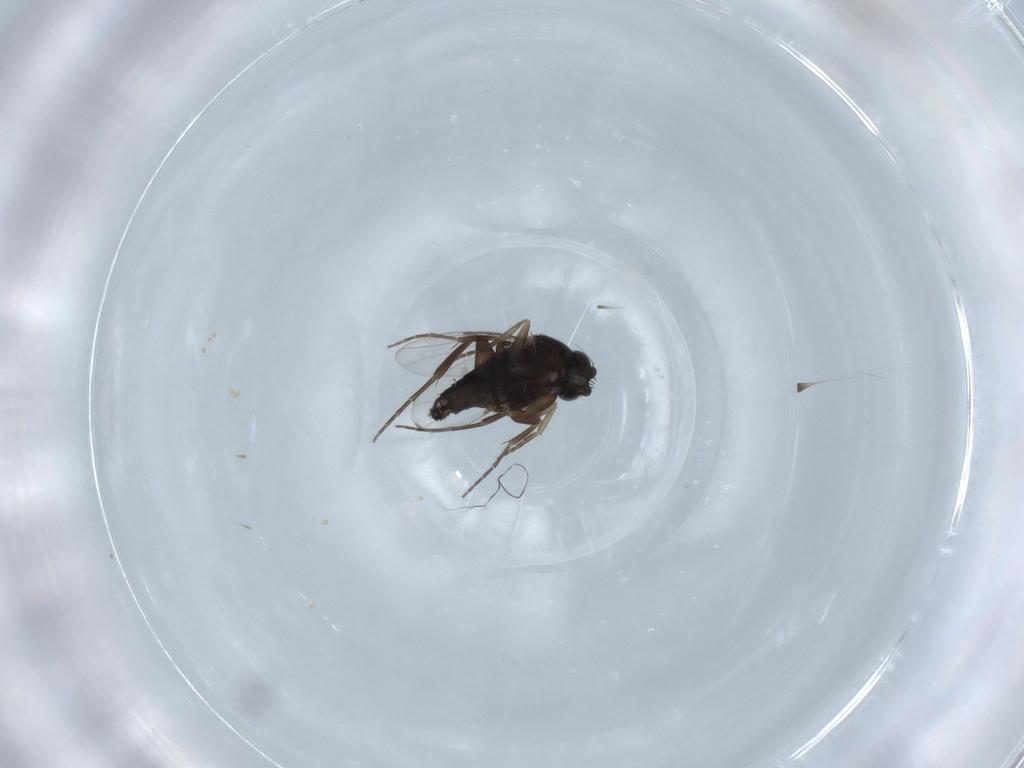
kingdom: Animalia
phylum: Arthropoda
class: Insecta
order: Diptera
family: Phoridae
